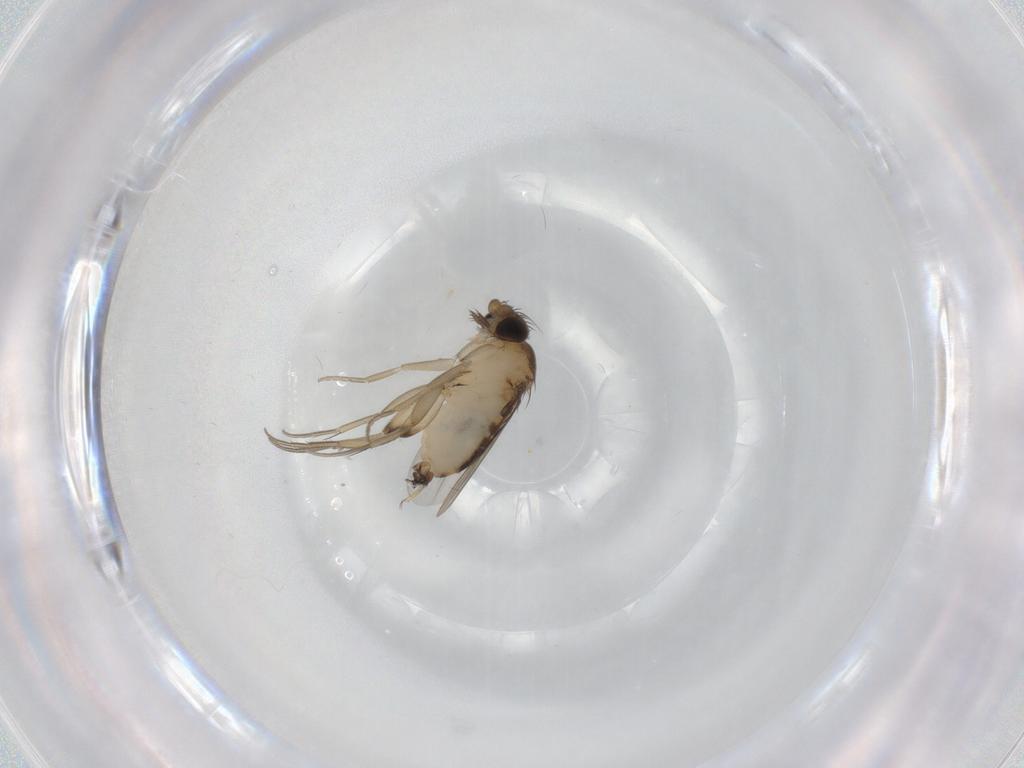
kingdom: Animalia
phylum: Arthropoda
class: Insecta
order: Diptera
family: Phoridae
